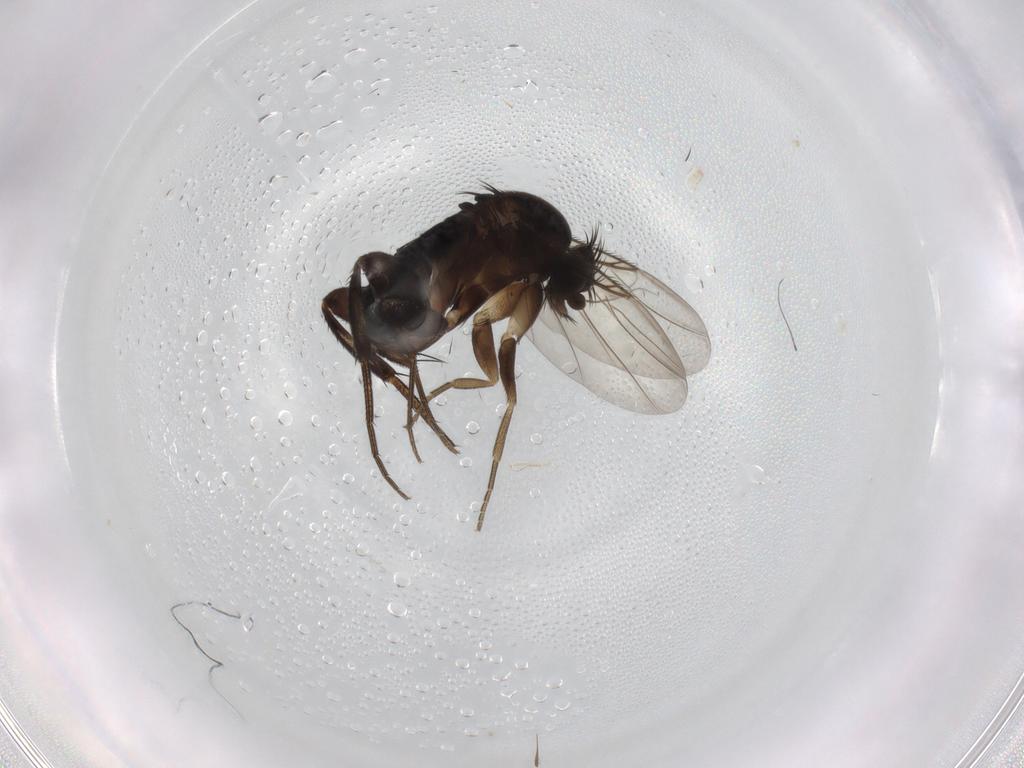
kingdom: Animalia
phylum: Arthropoda
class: Insecta
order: Diptera
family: Phoridae
